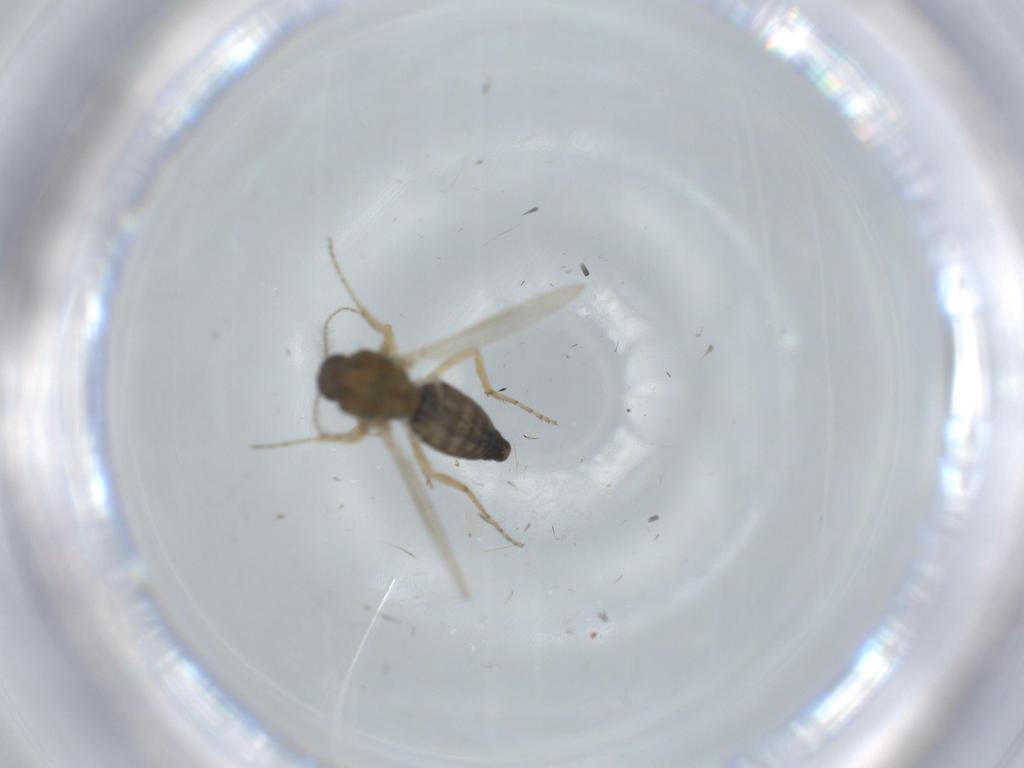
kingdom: Animalia
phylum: Arthropoda
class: Insecta
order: Diptera
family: Ceratopogonidae
